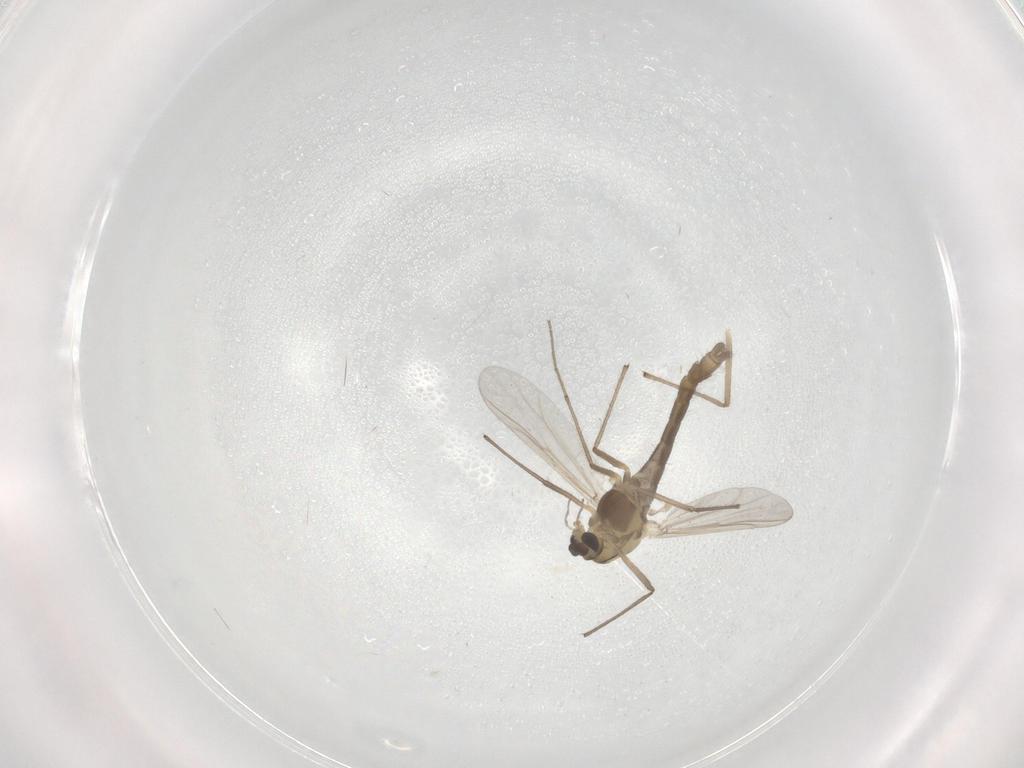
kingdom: Animalia
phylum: Arthropoda
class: Insecta
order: Diptera
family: Chironomidae
